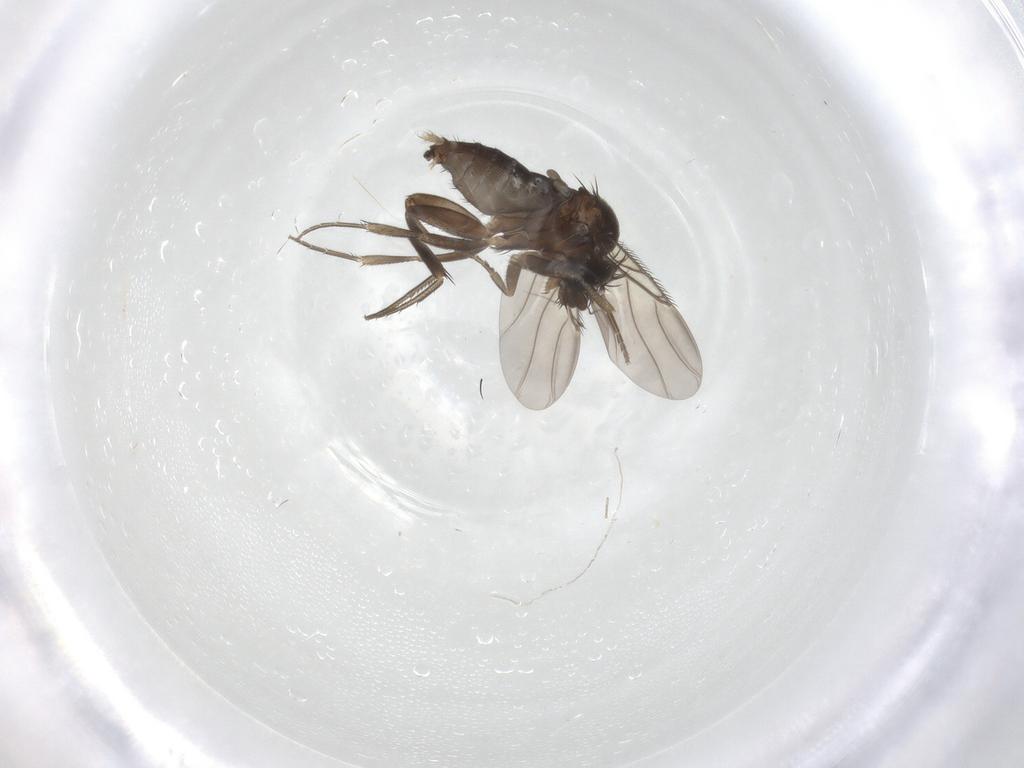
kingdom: Animalia
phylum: Arthropoda
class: Insecta
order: Diptera
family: Phoridae
